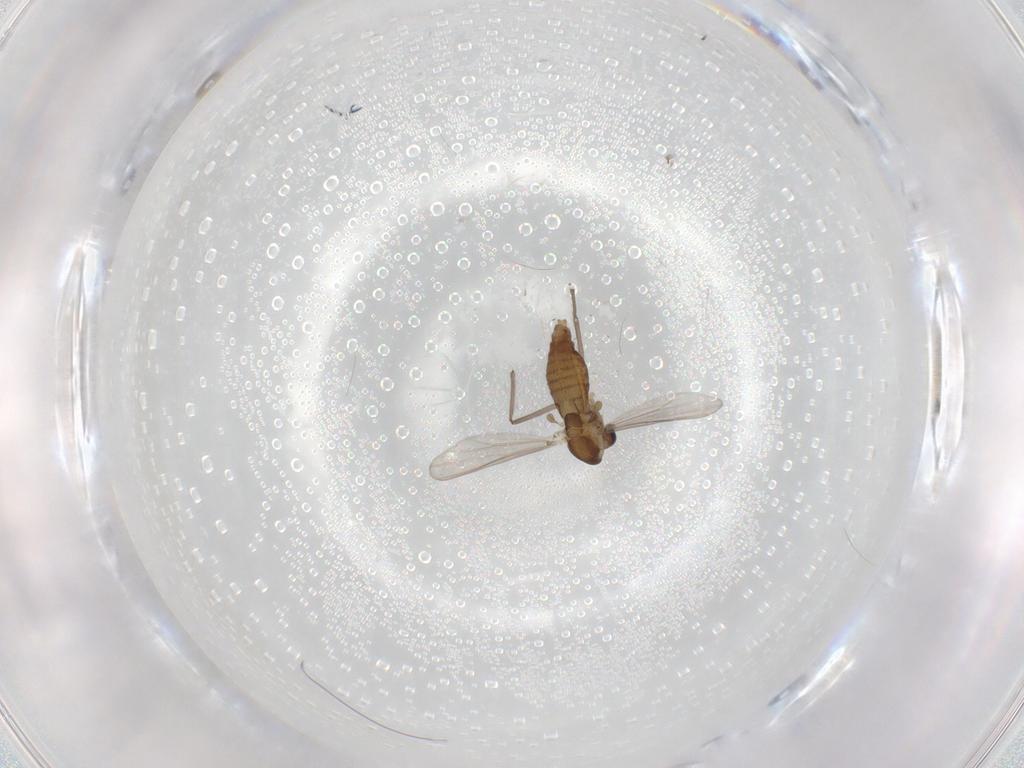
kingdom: Animalia
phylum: Arthropoda
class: Insecta
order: Diptera
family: Chironomidae
